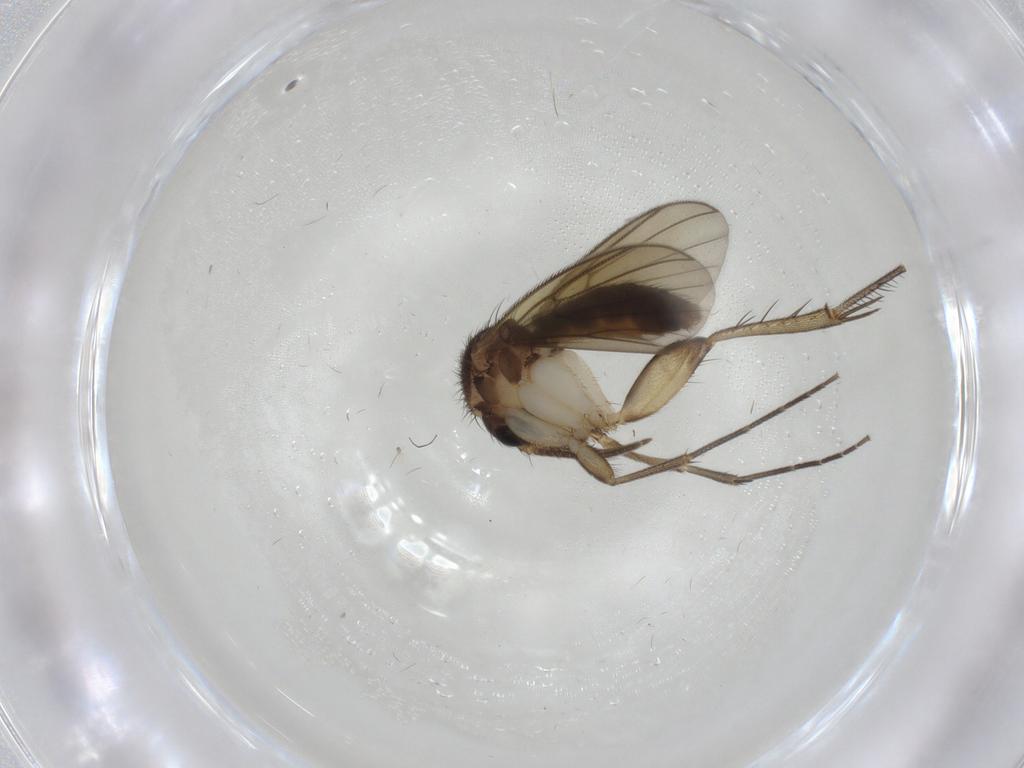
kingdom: Animalia
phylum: Arthropoda
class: Insecta
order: Diptera
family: Limoniidae
